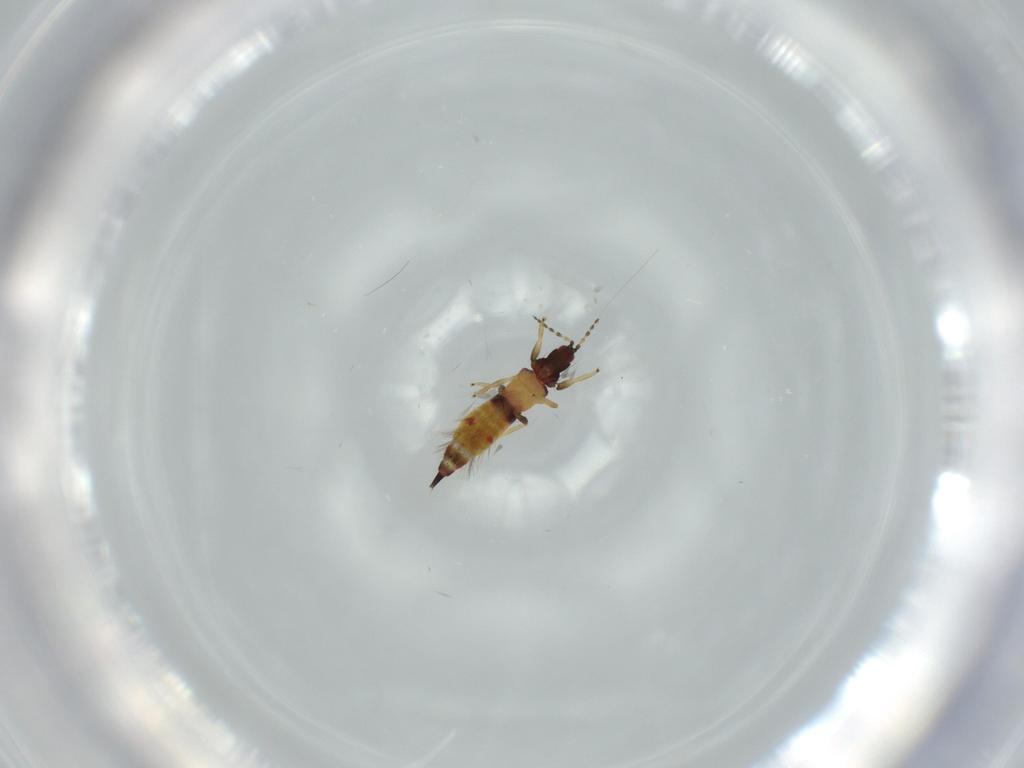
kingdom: Animalia
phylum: Arthropoda
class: Insecta
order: Thysanoptera
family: Phlaeothripidae
